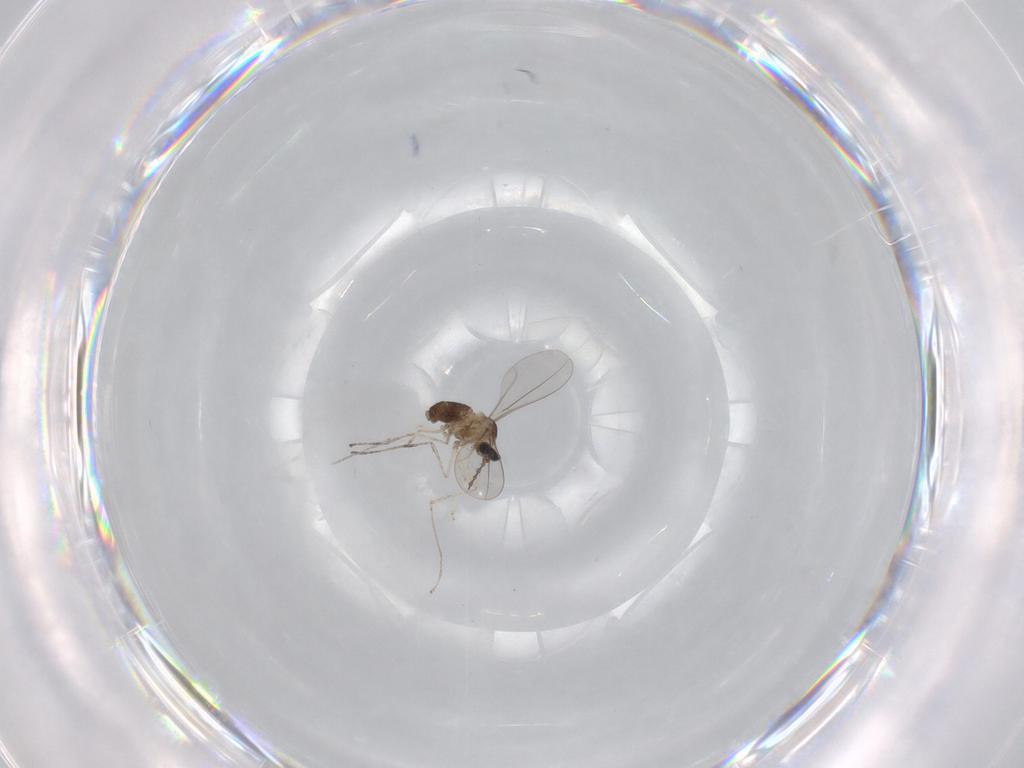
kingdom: Animalia
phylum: Arthropoda
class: Insecta
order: Diptera
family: Cecidomyiidae
